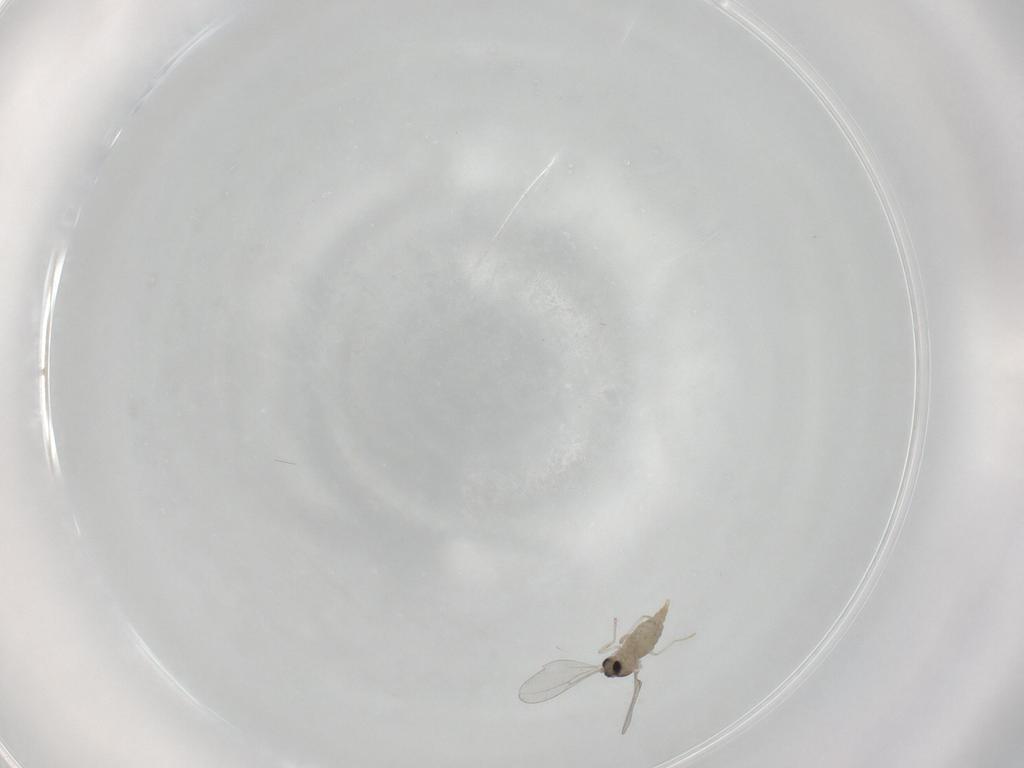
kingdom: Animalia
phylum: Arthropoda
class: Insecta
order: Diptera
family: Cecidomyiidae
